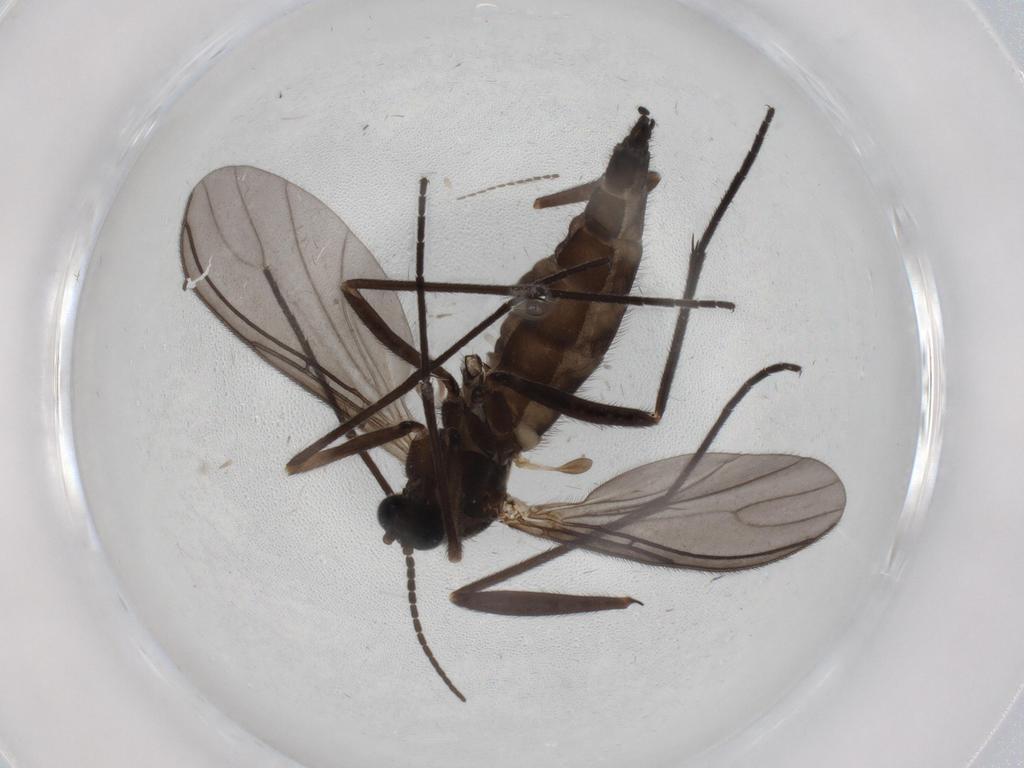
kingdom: Animalia
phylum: Arthropoda
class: Insecta
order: Diptera
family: Sciaridae
